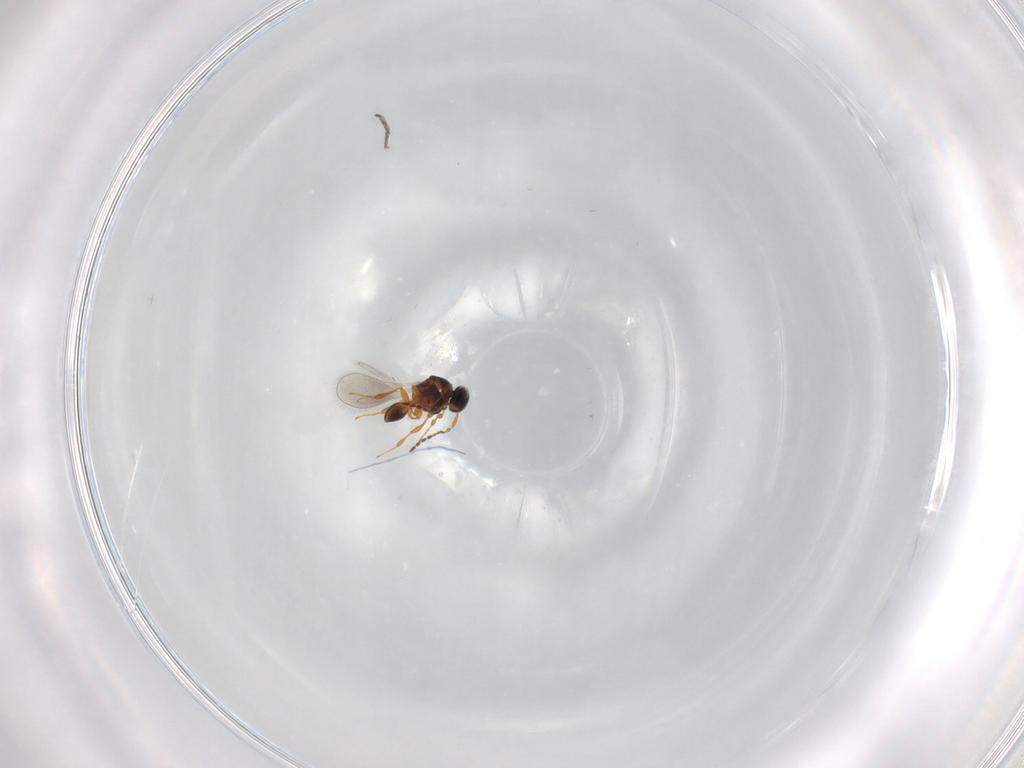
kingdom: Animalia
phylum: Arthropoda
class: Insecta
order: Hymenoptera
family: Platygastridae
